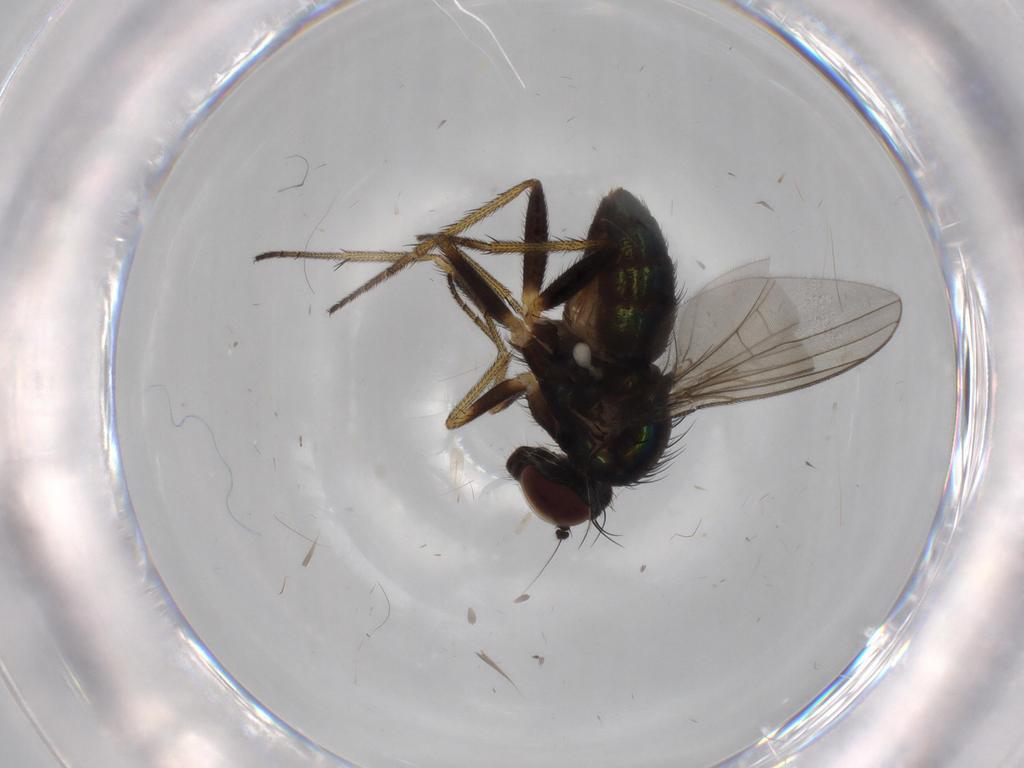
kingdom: Animalia
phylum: Arthropoda
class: Insecta
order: Diptera
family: Dolichopodidae
